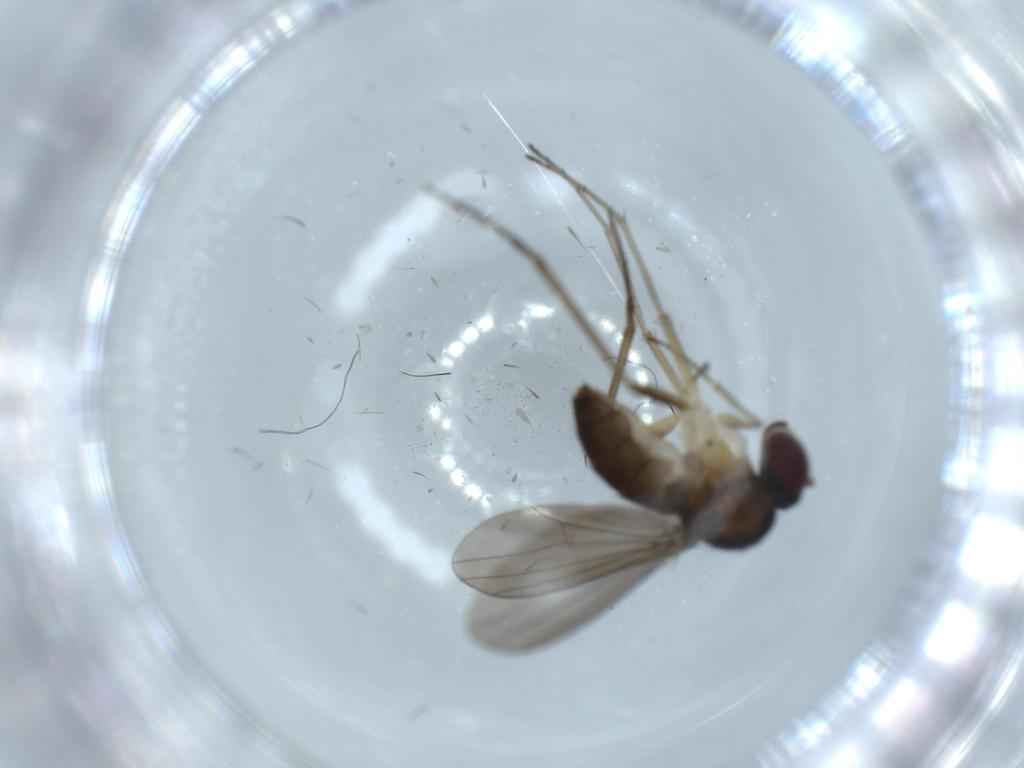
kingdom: Animalia
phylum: Arthropoda
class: Insecta
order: Diptera
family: Dolichopodidae
